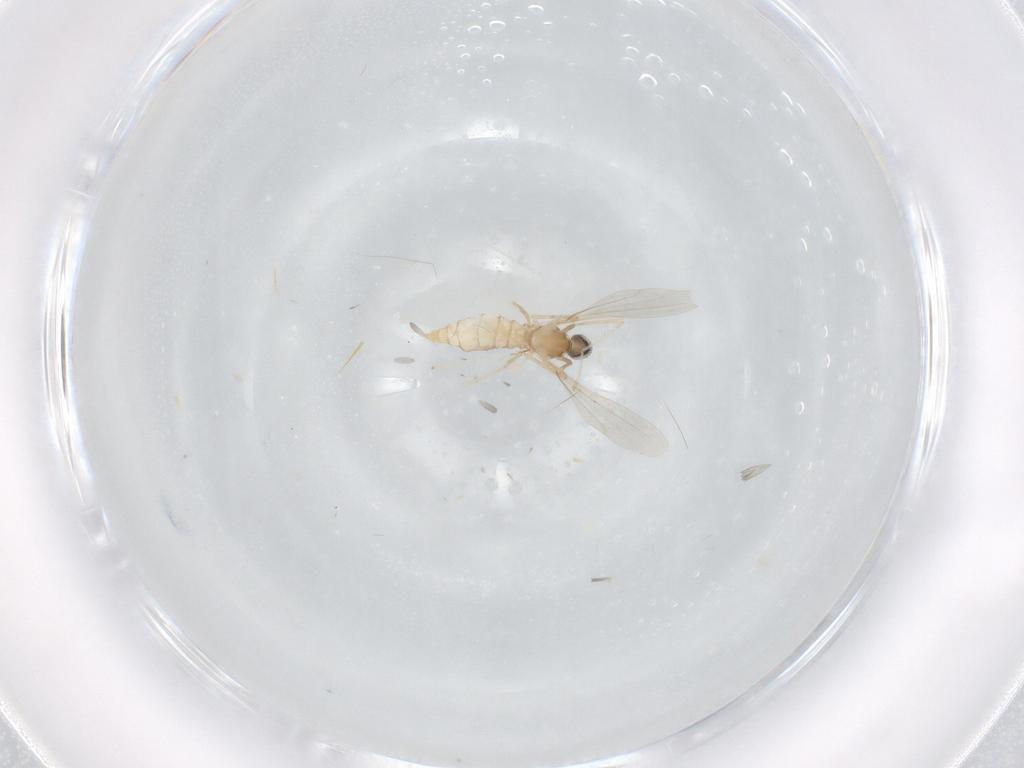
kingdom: Animalia
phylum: Arthropoda
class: Insecta
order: Diptera
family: Cecidomyiidae
